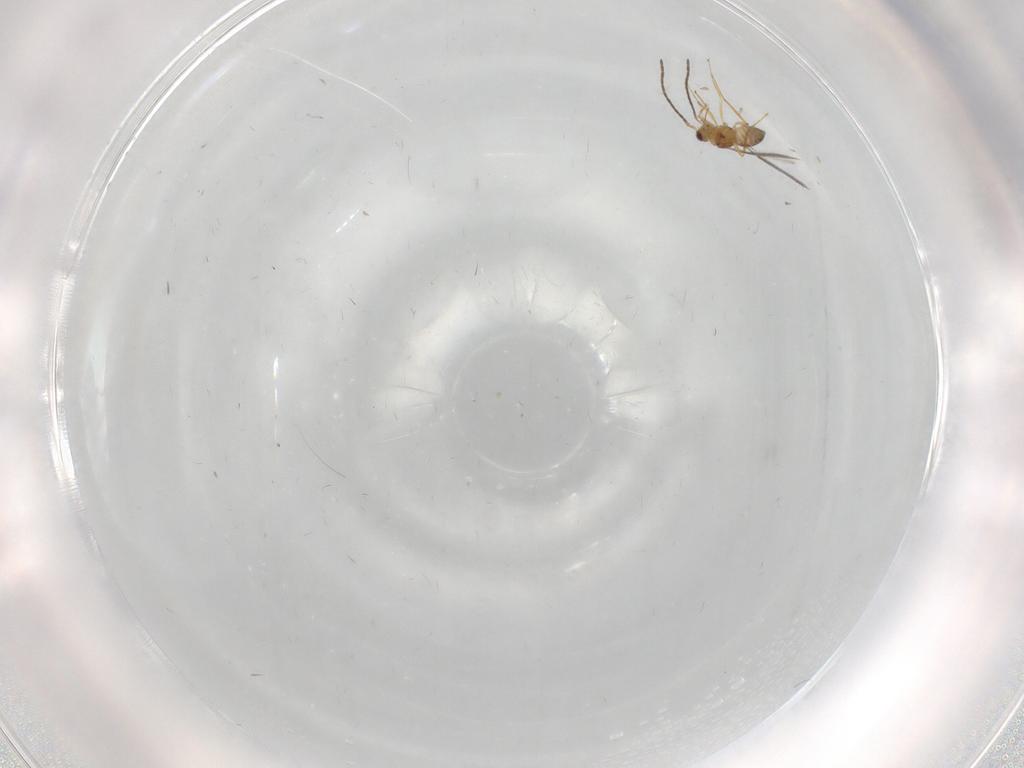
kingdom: Animalia
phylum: Arthropoda
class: Insecta
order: Hymenoptera
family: Mymaridae
